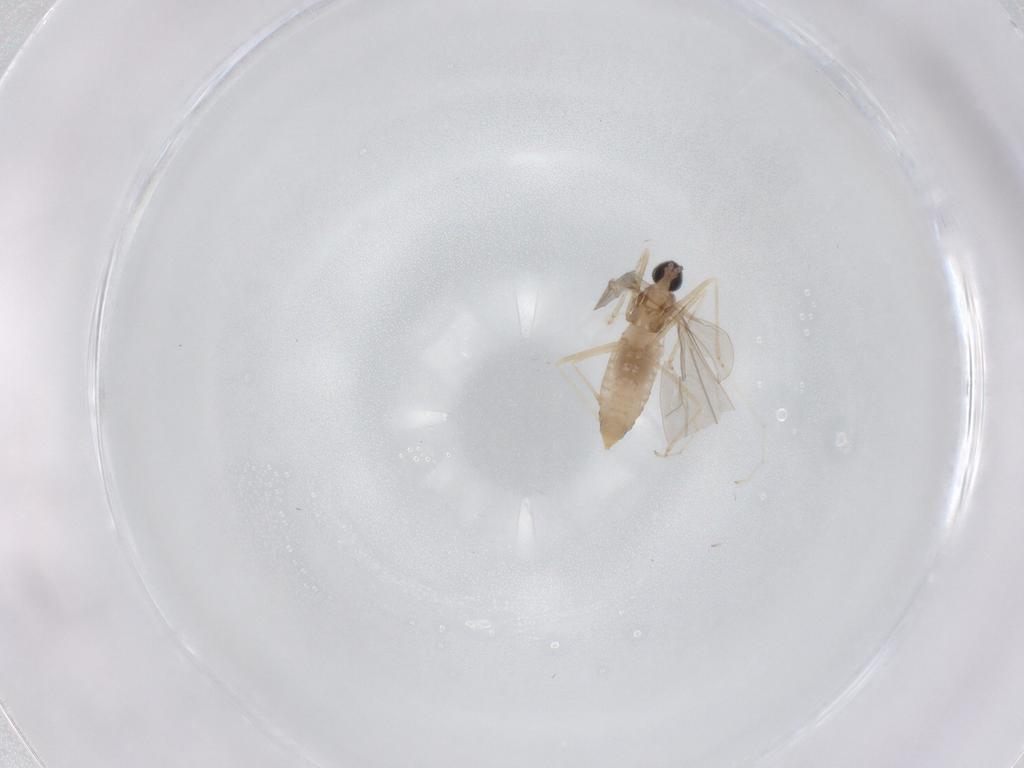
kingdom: Animalia
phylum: Arthropoda
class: Insecta
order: Diptera
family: Cecidomyiidae
